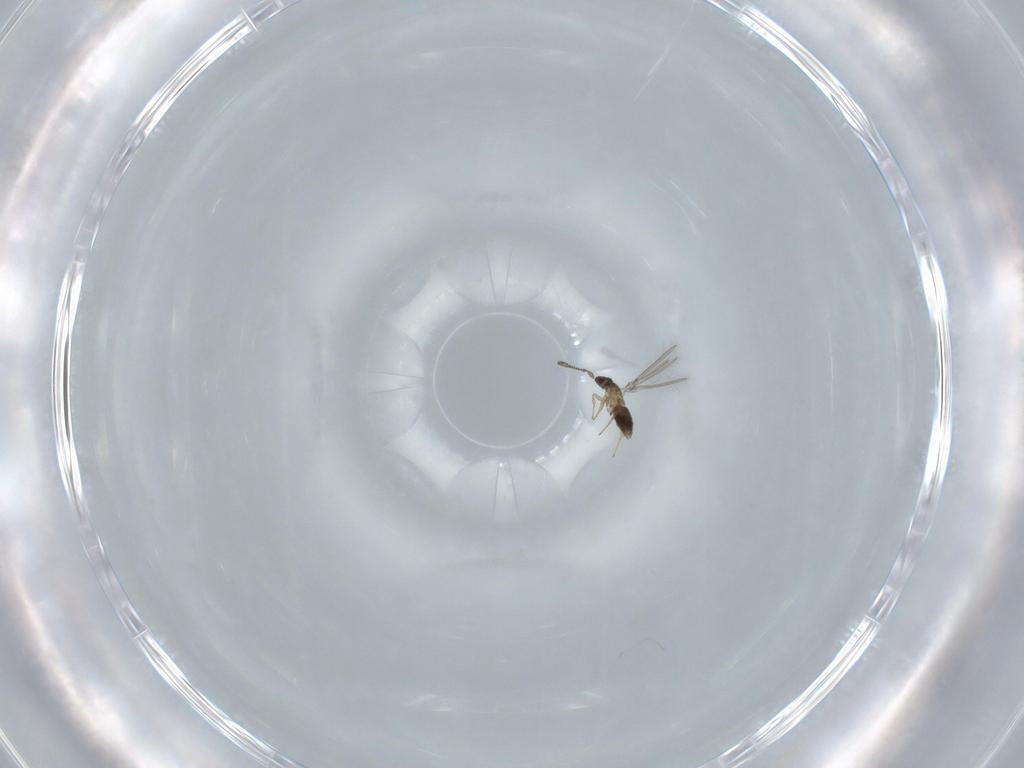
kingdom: Animalia
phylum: Arthropoda
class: Insecta
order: Hymenoptera
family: Mymaridae
